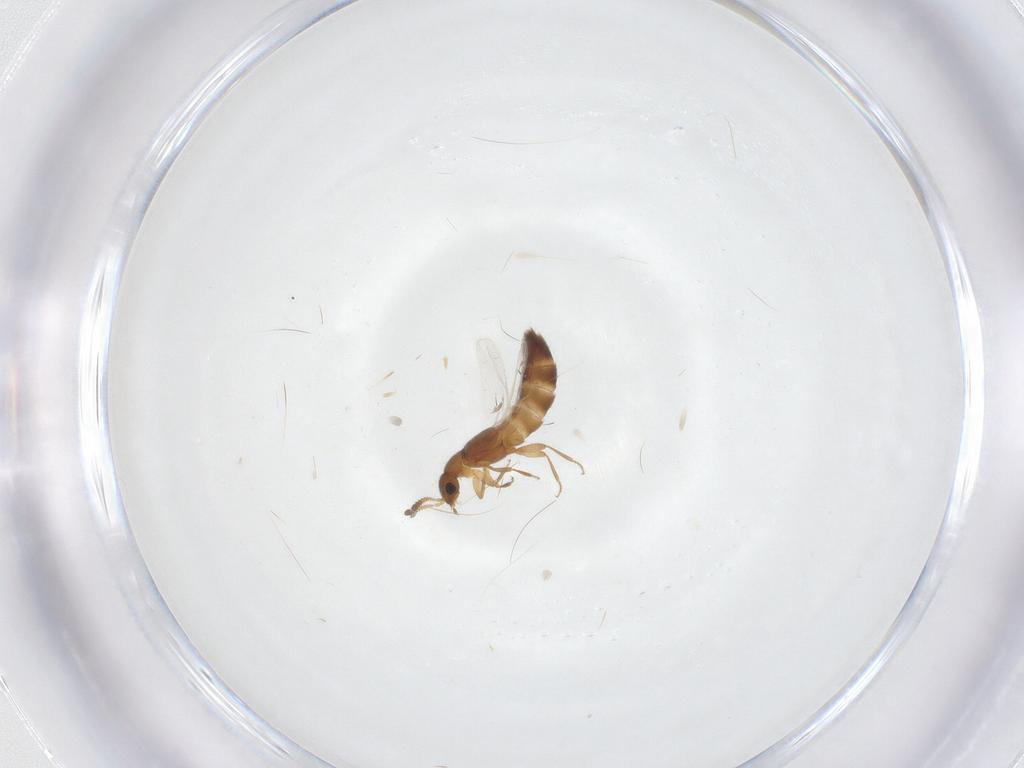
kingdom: Animalia
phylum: Arthropoda
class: Insecta
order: Coleoptera
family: Staphylinidae
